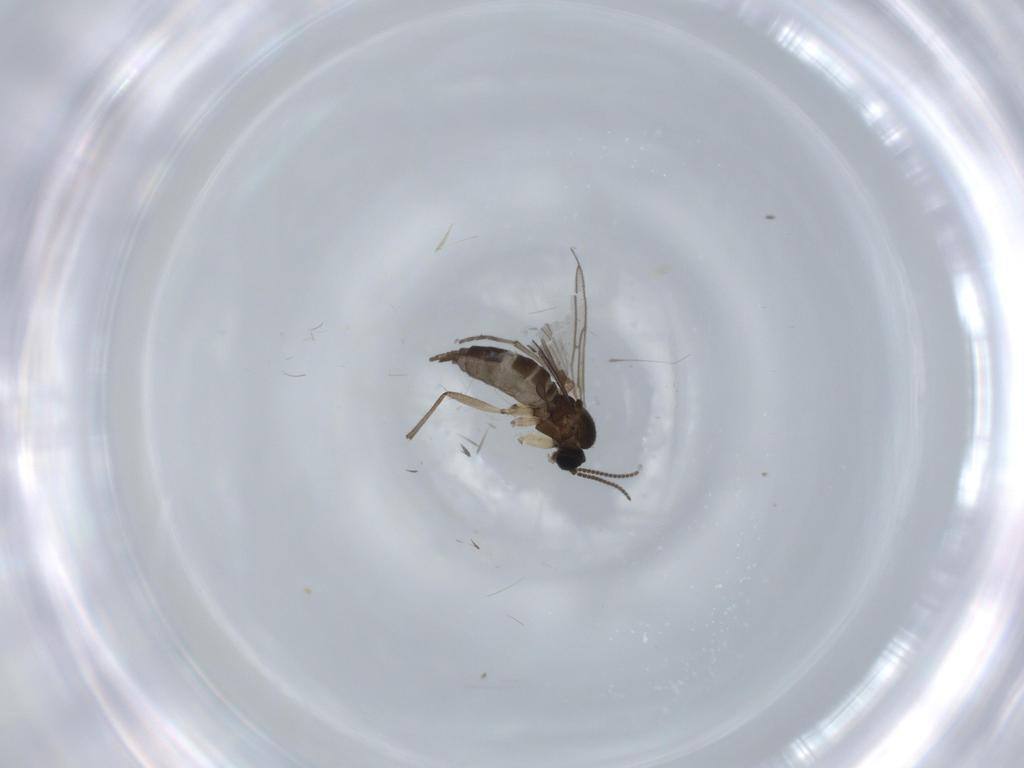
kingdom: Animalia
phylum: Arthropoda
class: Insecta
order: Diptera
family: Sciaridae
